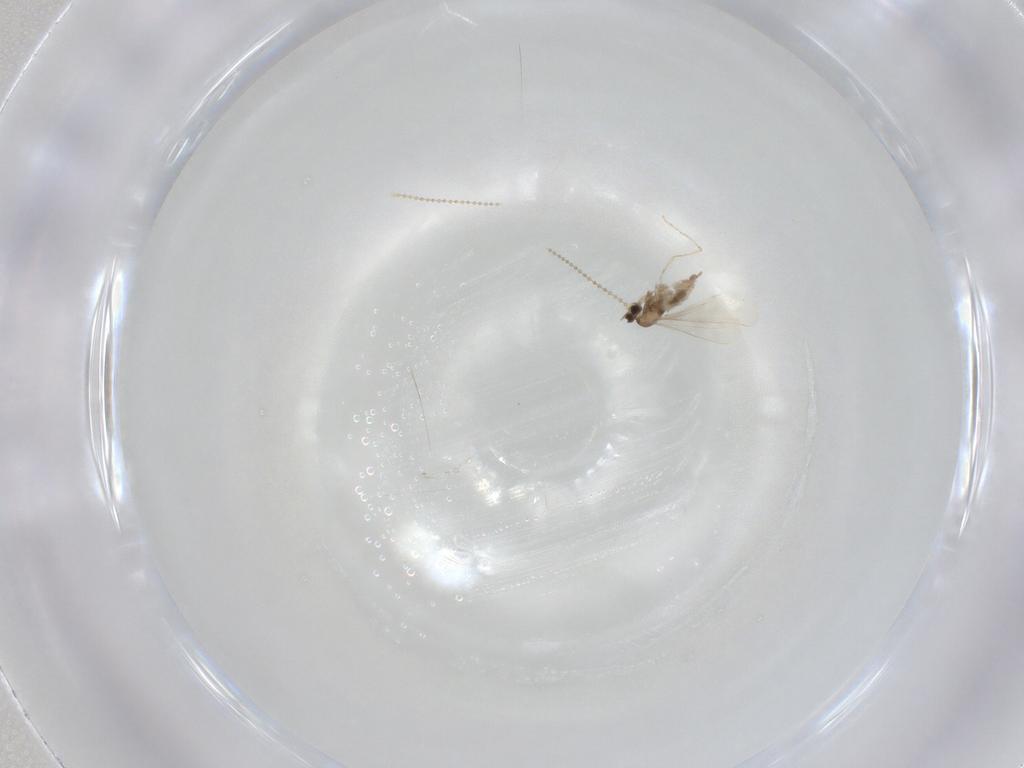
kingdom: Animalia
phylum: Arthropoda
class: Insecta
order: Diptera
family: Cecidomyiidae
